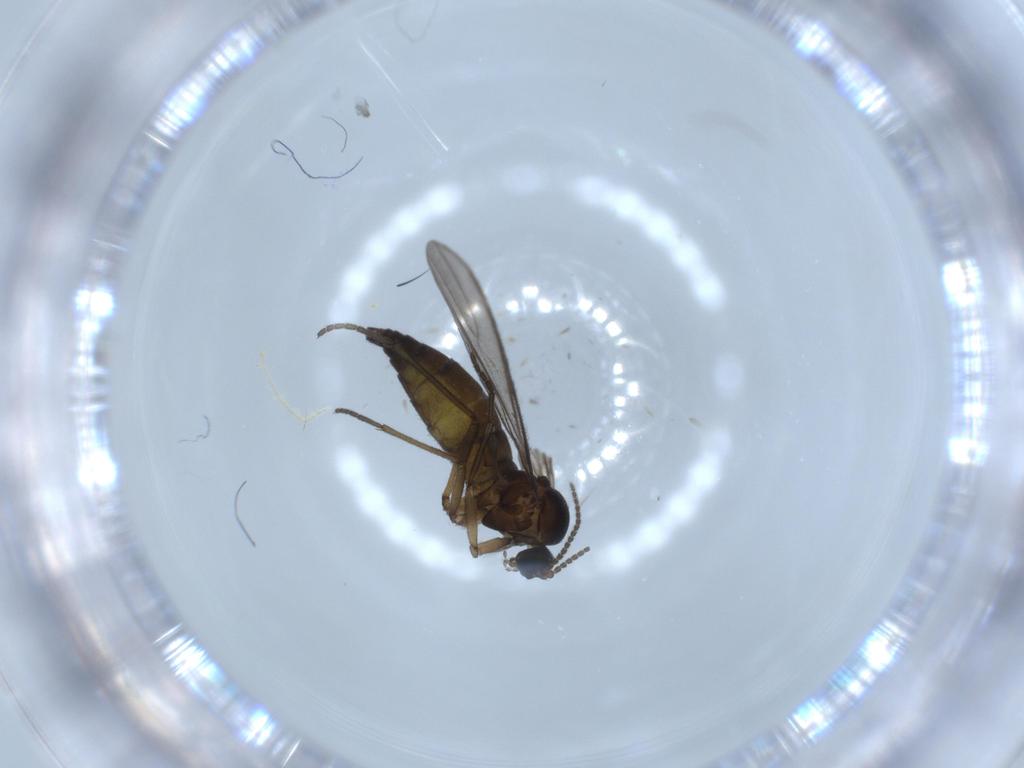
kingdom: Animalia
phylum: Arthropoda
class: Insecta
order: Diptera
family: Sciaridae
